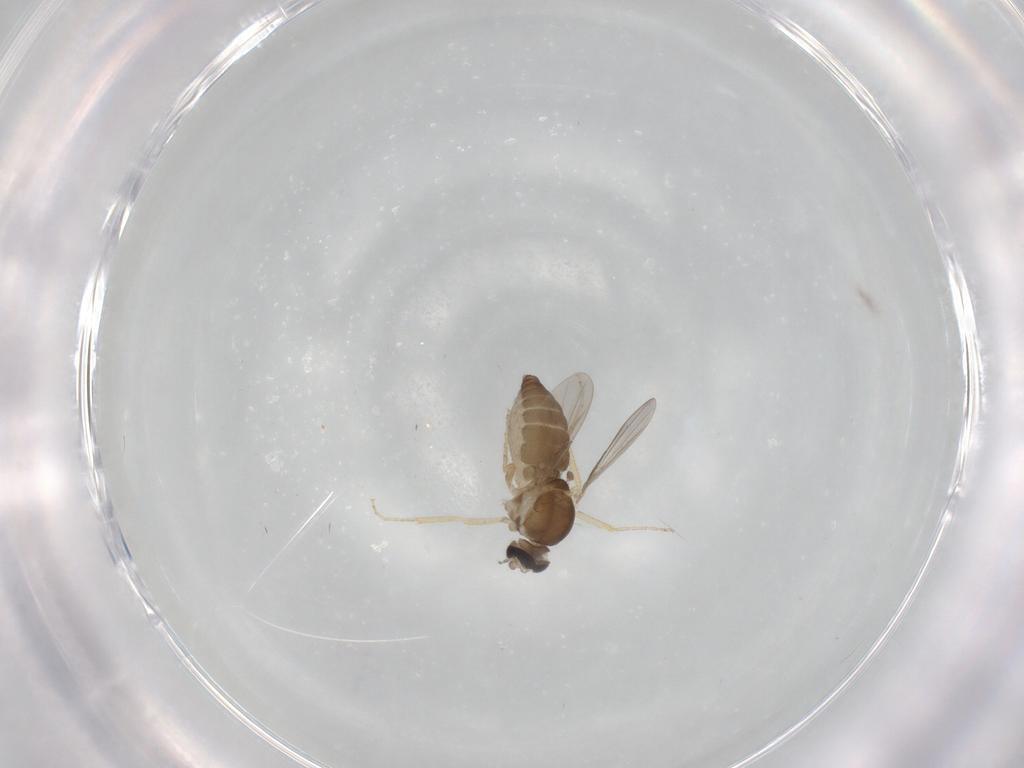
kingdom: Animalia
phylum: Arthropoda
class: Insecta
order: Diptera
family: Ceratopogonidae
